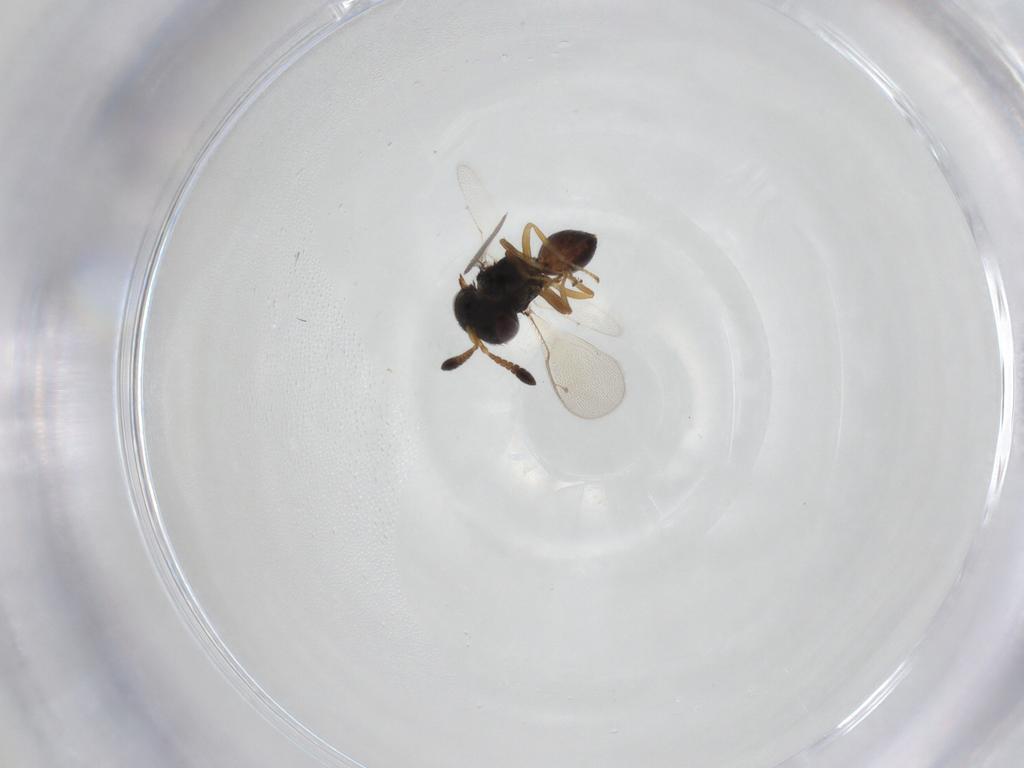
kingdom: Animalia
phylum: Arthropoda
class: Insecta
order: Hymenoptera
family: Pteromalidae
